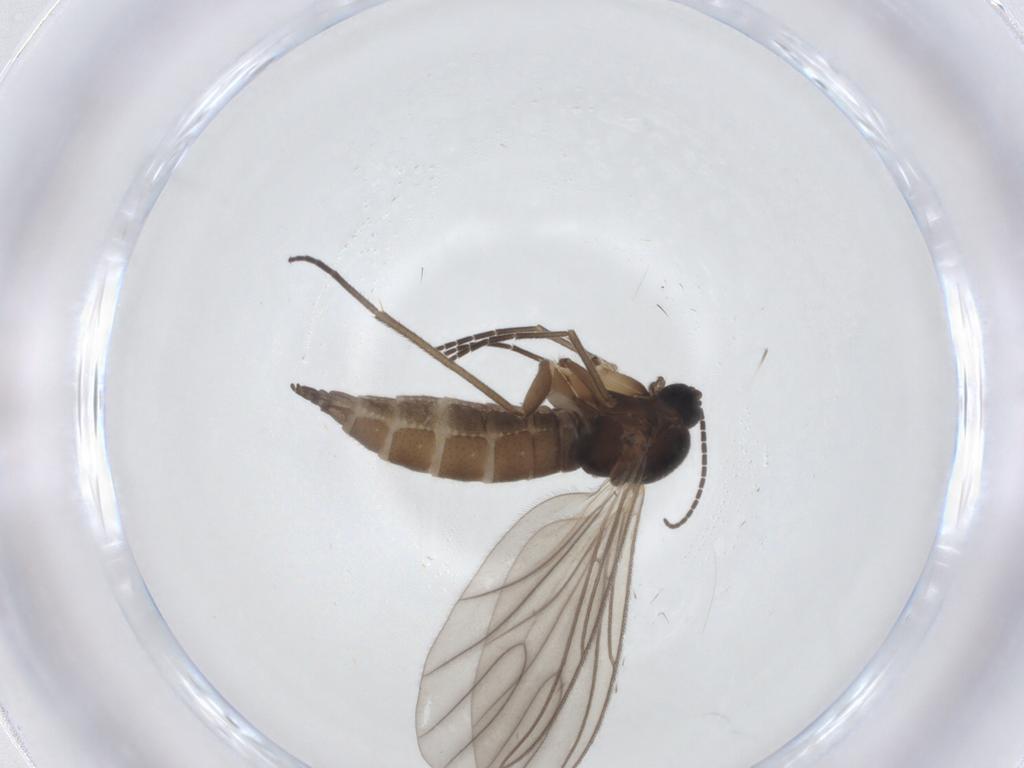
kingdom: Animalia
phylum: Arthropoda
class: Insecta
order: Diptera
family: Sciaridae
